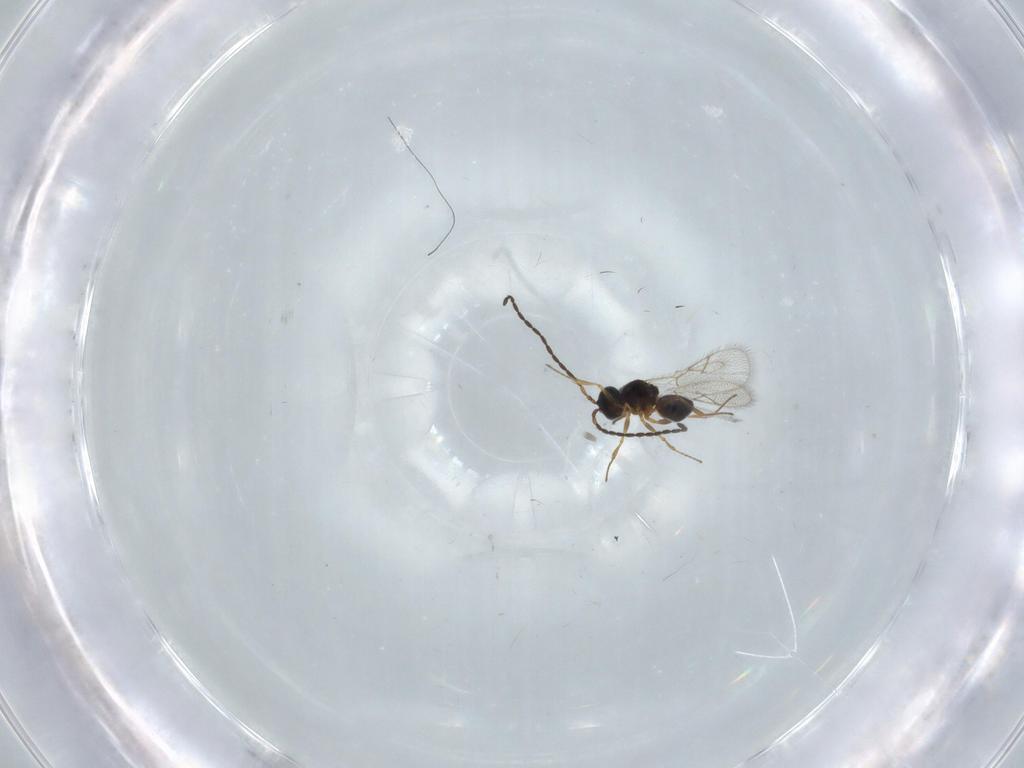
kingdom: Animalia
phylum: Arthropoda
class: Insecta
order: Hymenoptera
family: Figitidae
